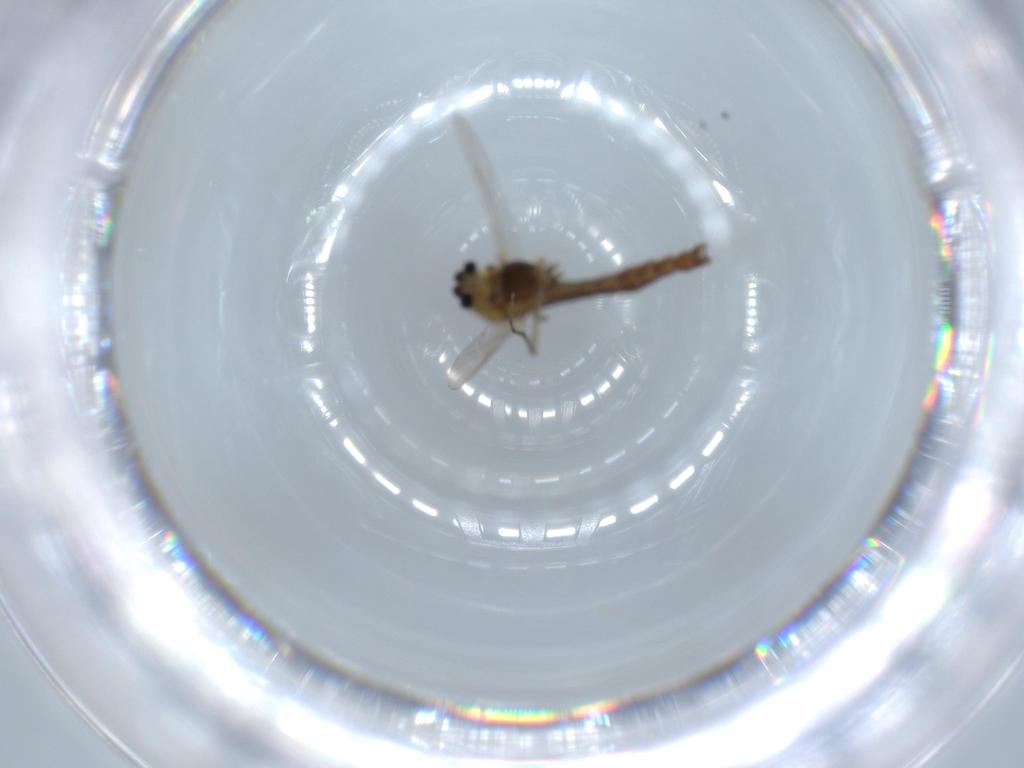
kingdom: Animalia
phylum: Arthropoda
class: Insecta
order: Diptera
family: Chironomidae
